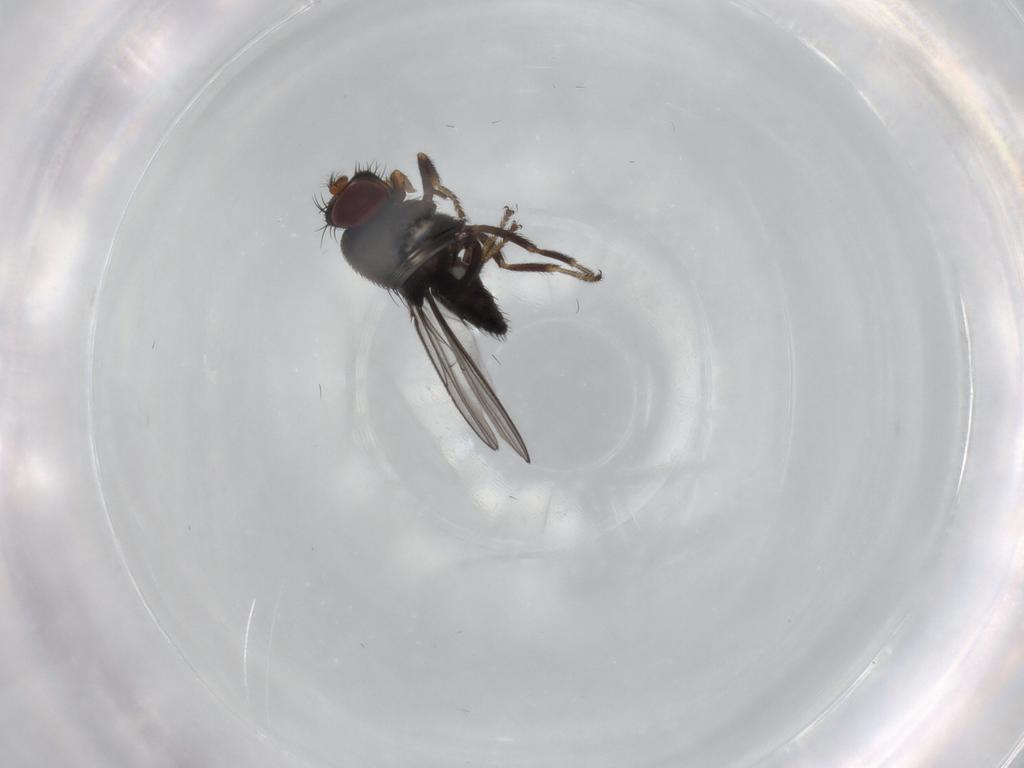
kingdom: Animalia
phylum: Arthropoda
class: Insecta
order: Diptera
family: Ephydridae
